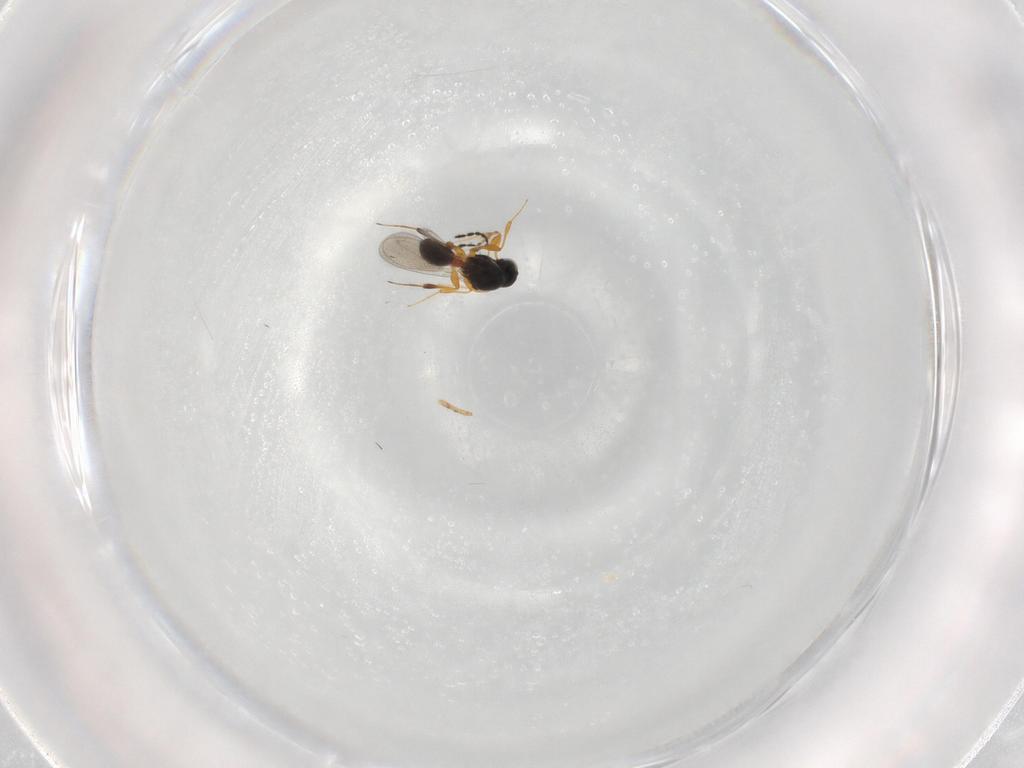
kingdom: Animalia
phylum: Arthropoda
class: Insecta
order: Hymenoptera
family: Platygastridae
